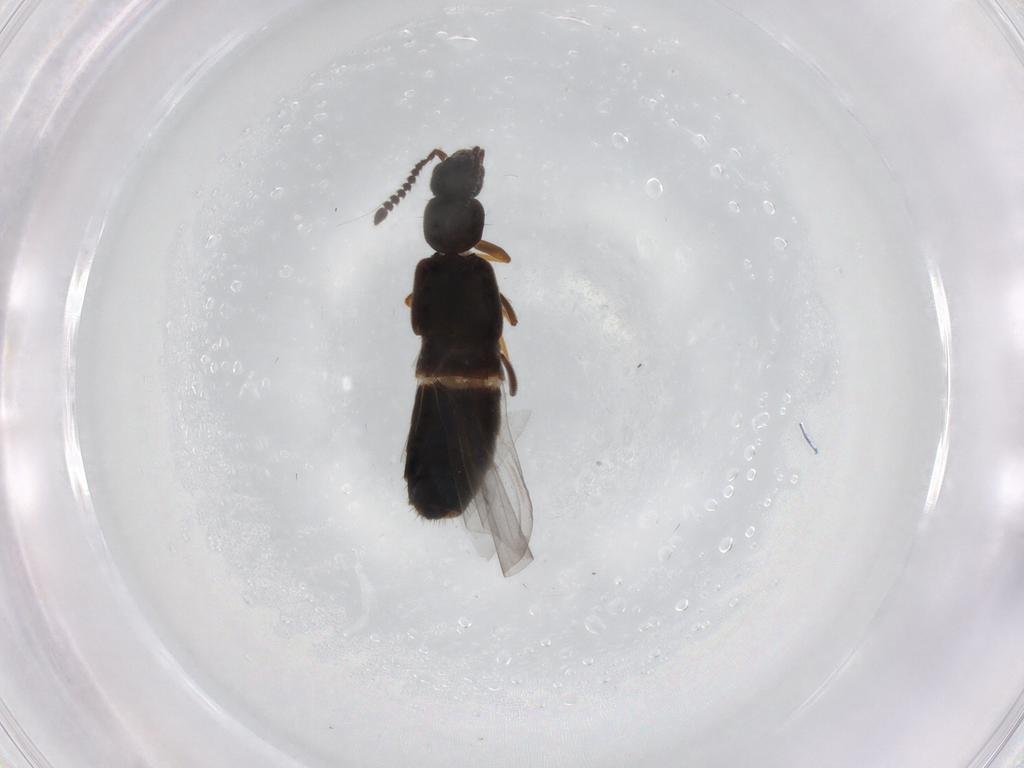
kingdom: Animalia
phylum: Arthropoda
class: Insecta
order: Coleoptera
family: Staphylinidae
